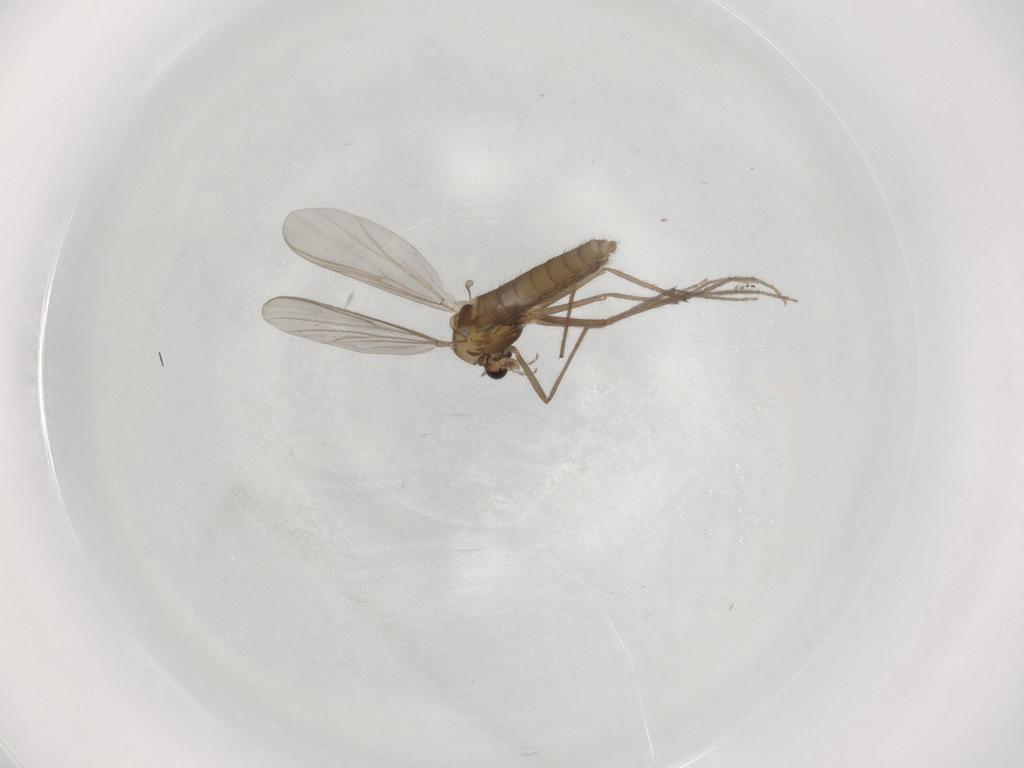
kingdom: Animalia
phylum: Arthropoda
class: Insecta
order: Diptera
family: Chironomidae
